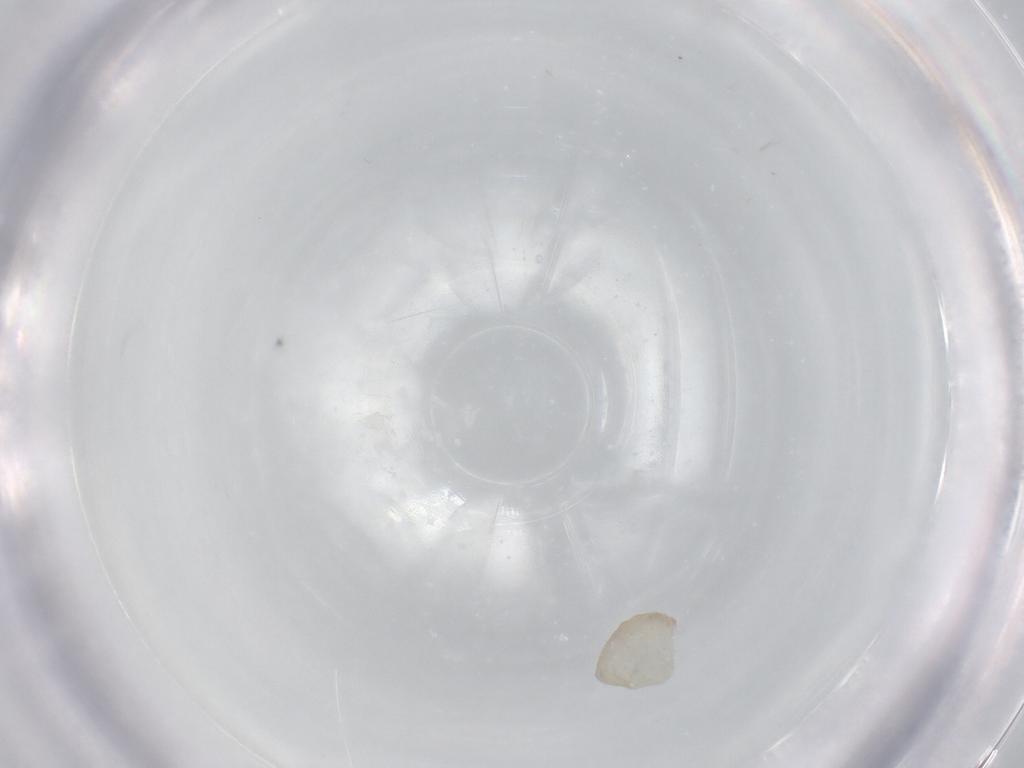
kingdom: Animalia
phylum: Arthropoda
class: Insecta
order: Hymenoptera
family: Mymaridae
